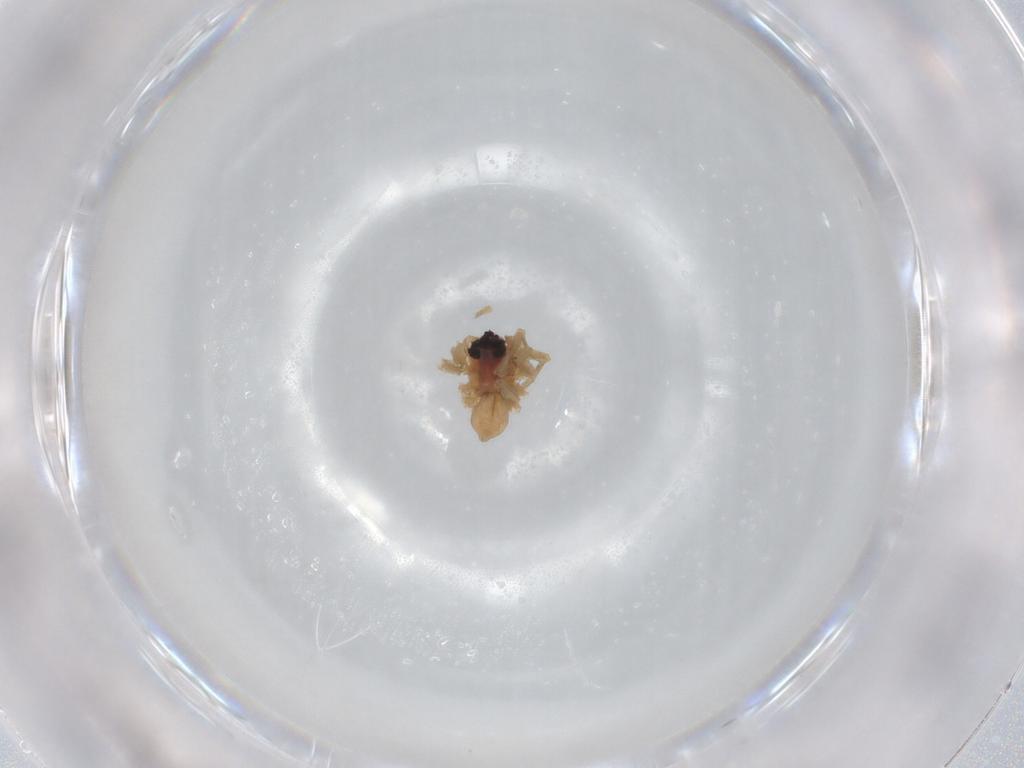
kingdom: Animalia
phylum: Arthropoda
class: Arachnida
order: Araneae
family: Lycosidae
